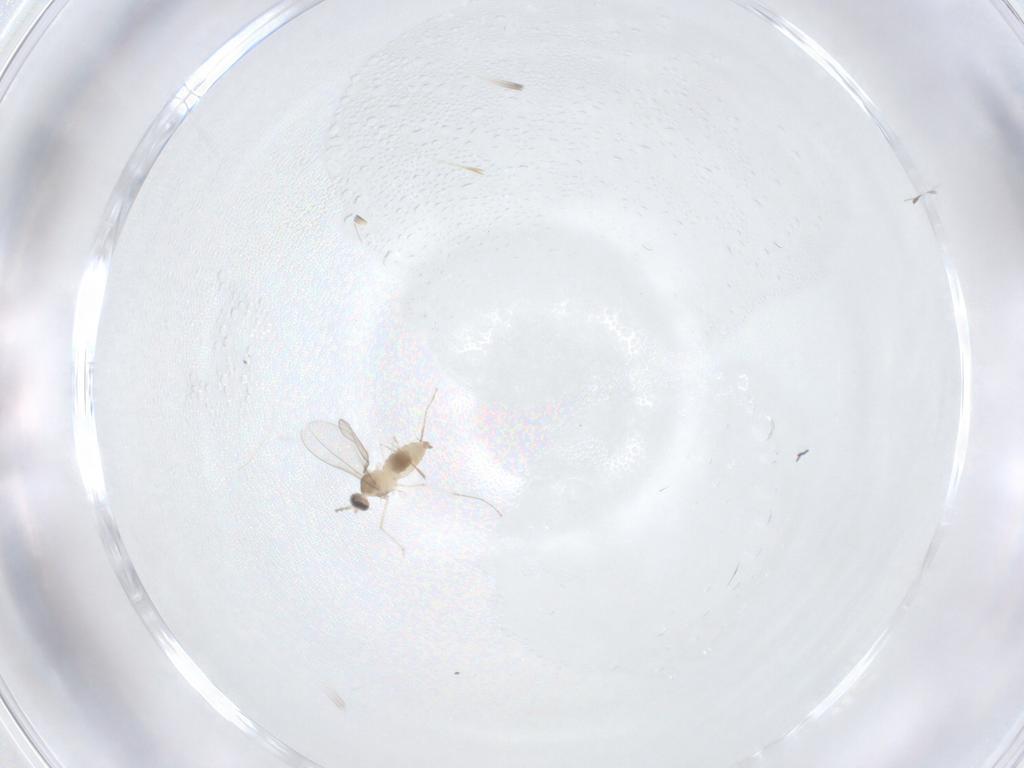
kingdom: Animalia
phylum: Arthropoda
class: Insecta
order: Diptera
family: Cecidomyiidae
